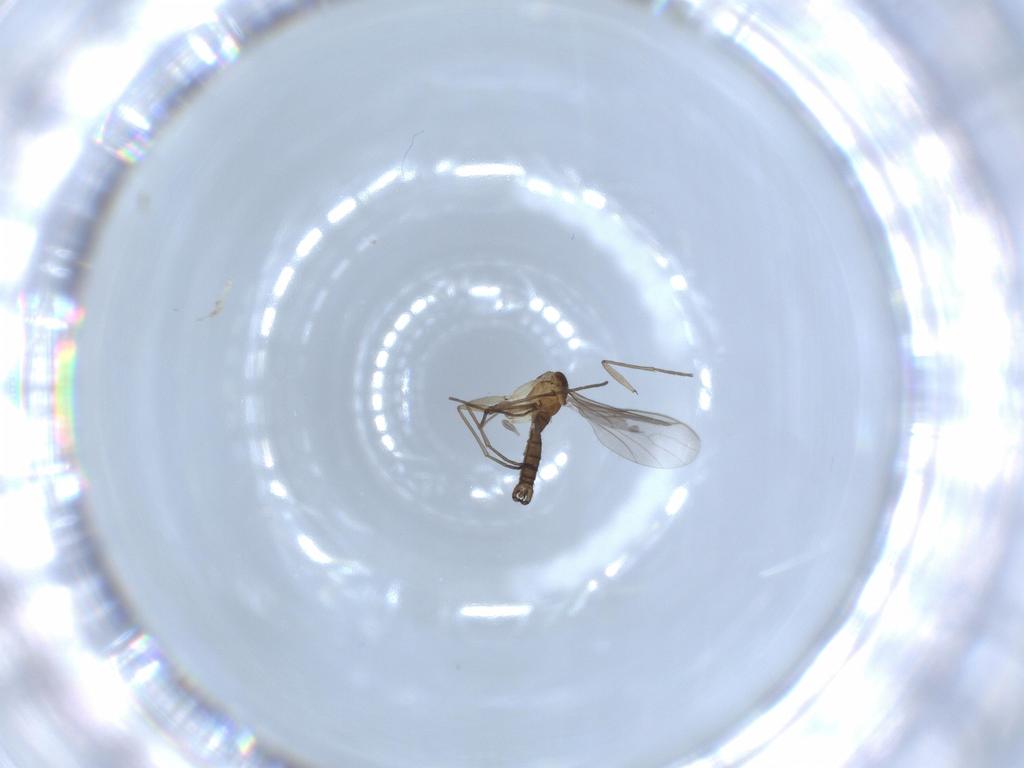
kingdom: Animalia
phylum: Arthropoda
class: Insecta
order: Diptera
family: Sciaridae
